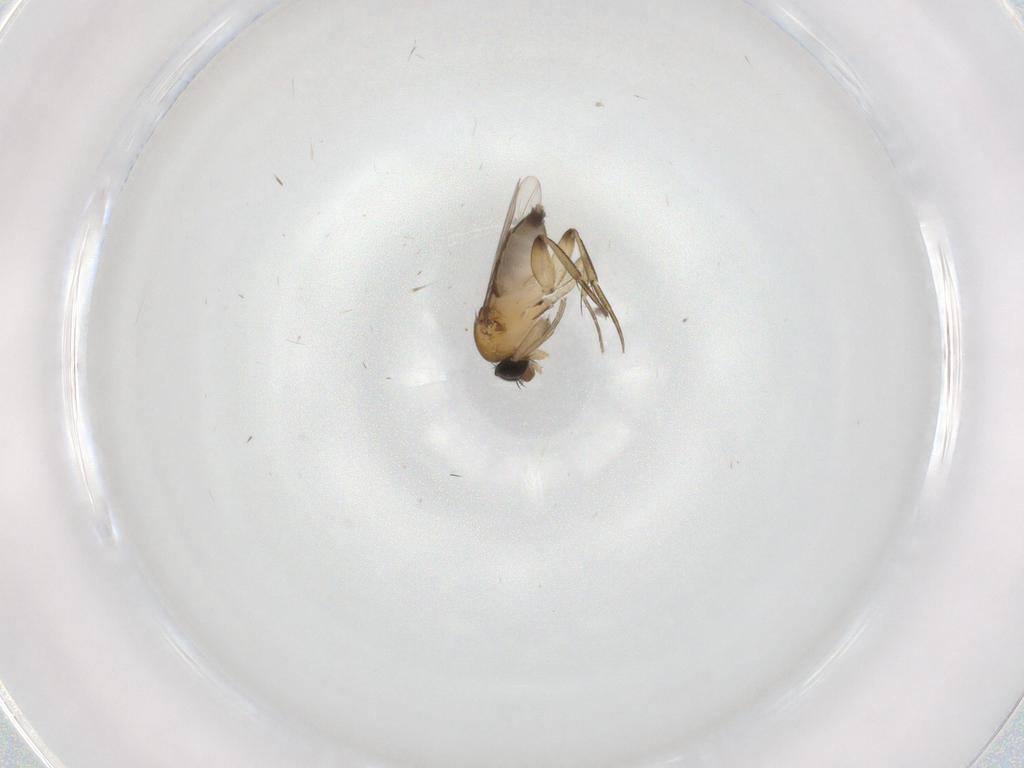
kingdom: Animalia
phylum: Arthropoda
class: Insecta
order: Diptera
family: Phoridae
